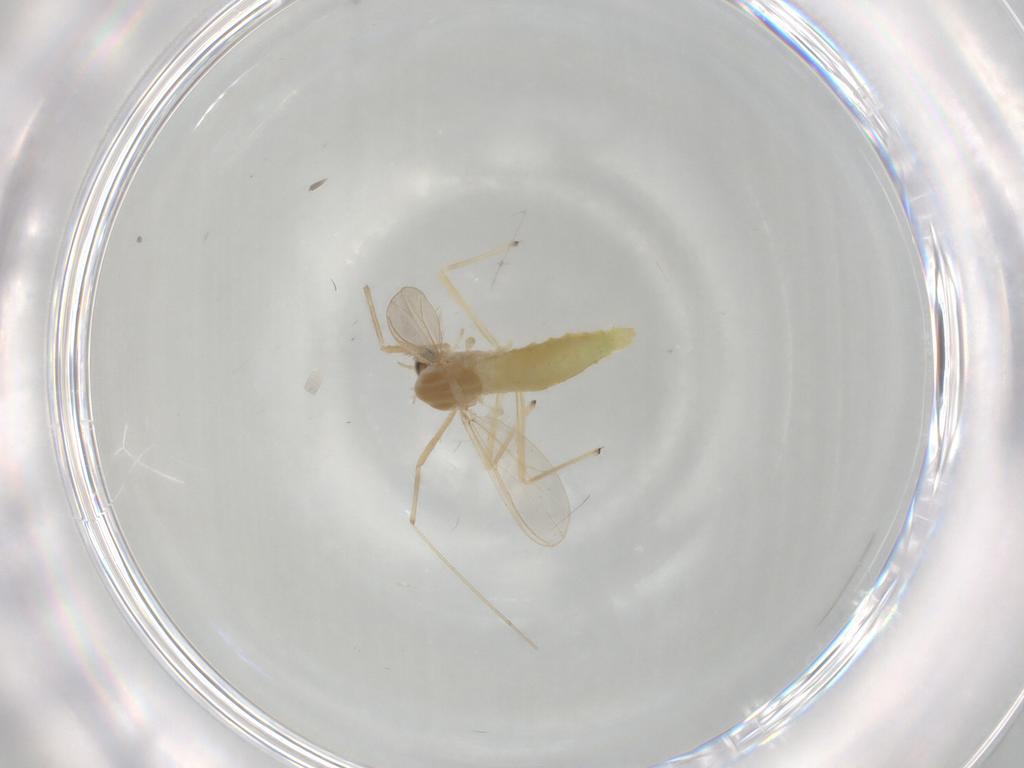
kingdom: Animalia
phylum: Arthropoda
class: Insecta
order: Diptera
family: Chironomidae
